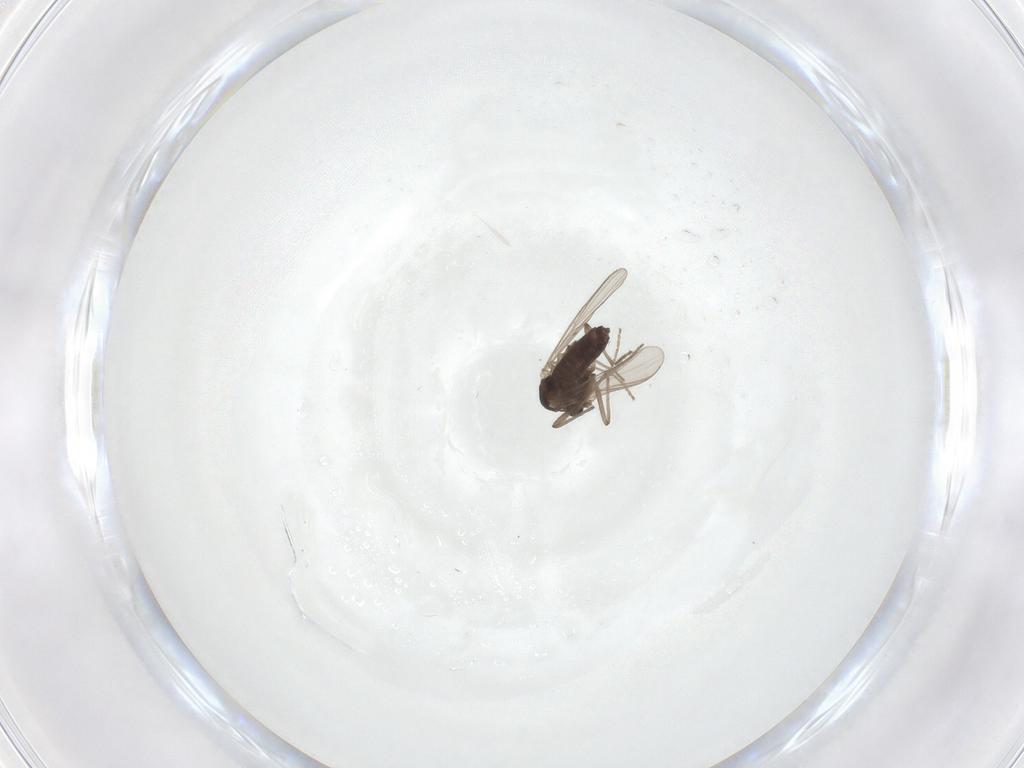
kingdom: Animalia
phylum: Arthropoda
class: Insecta
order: Diptera
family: Chironomidae
